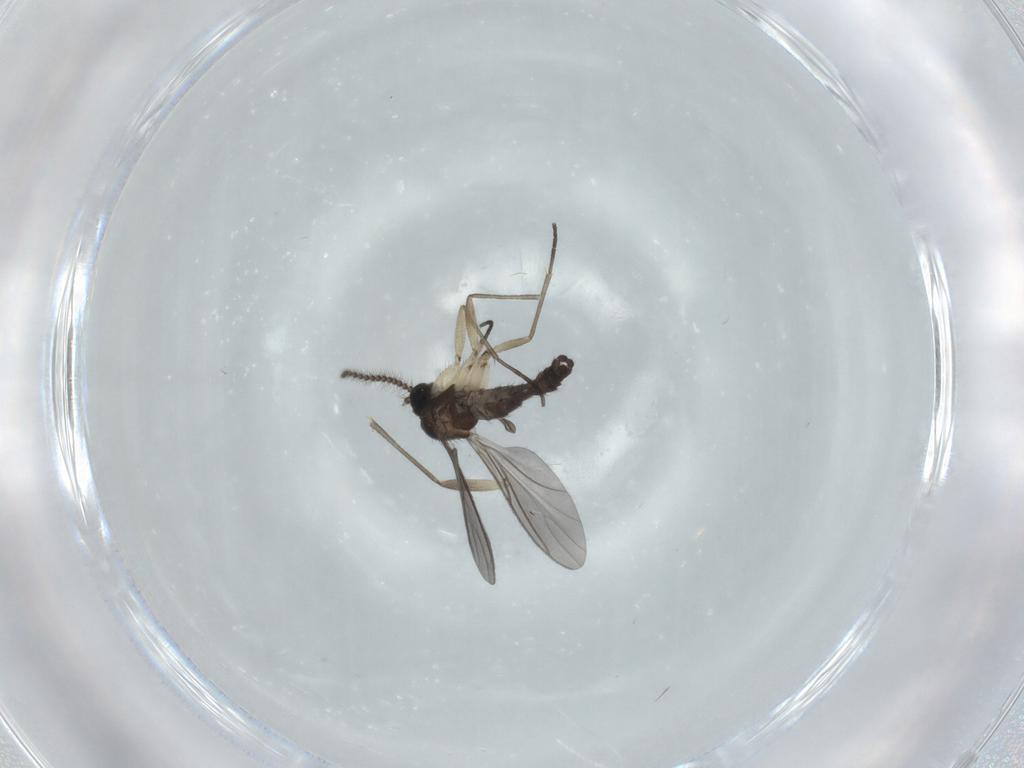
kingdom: Animalia
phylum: Arthropoda
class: Insecta
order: Diptera
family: Sciaridae
